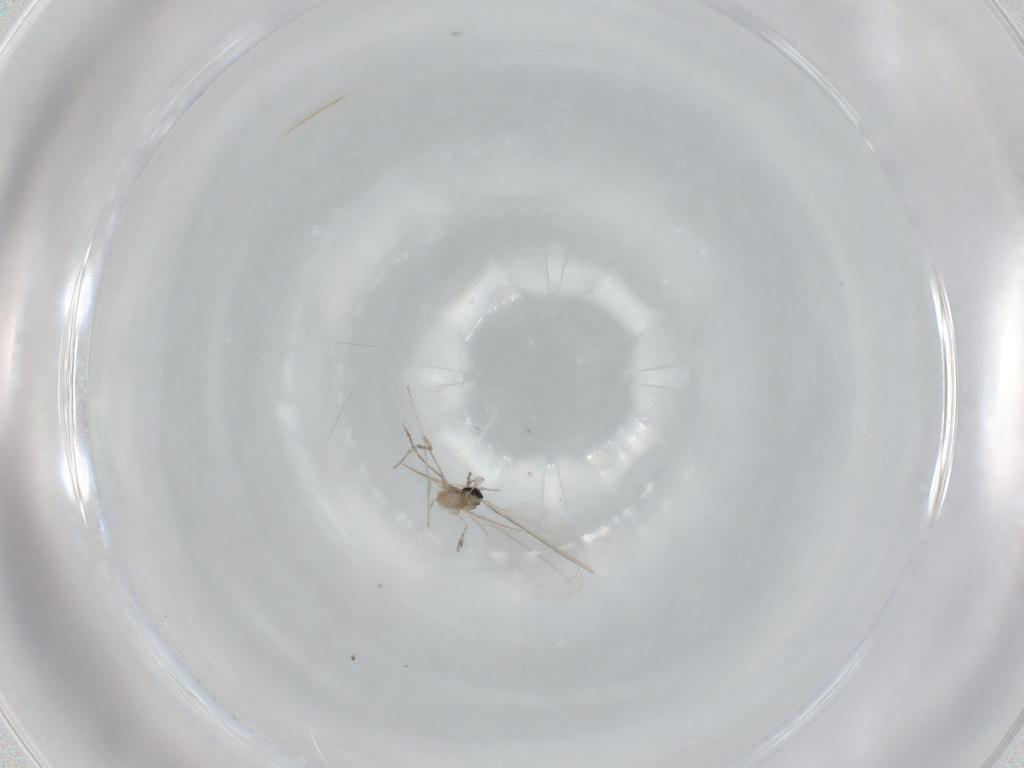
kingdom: Animalia
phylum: Arthropoda
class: Insecta
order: Diptera
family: Cecidomyiidae
